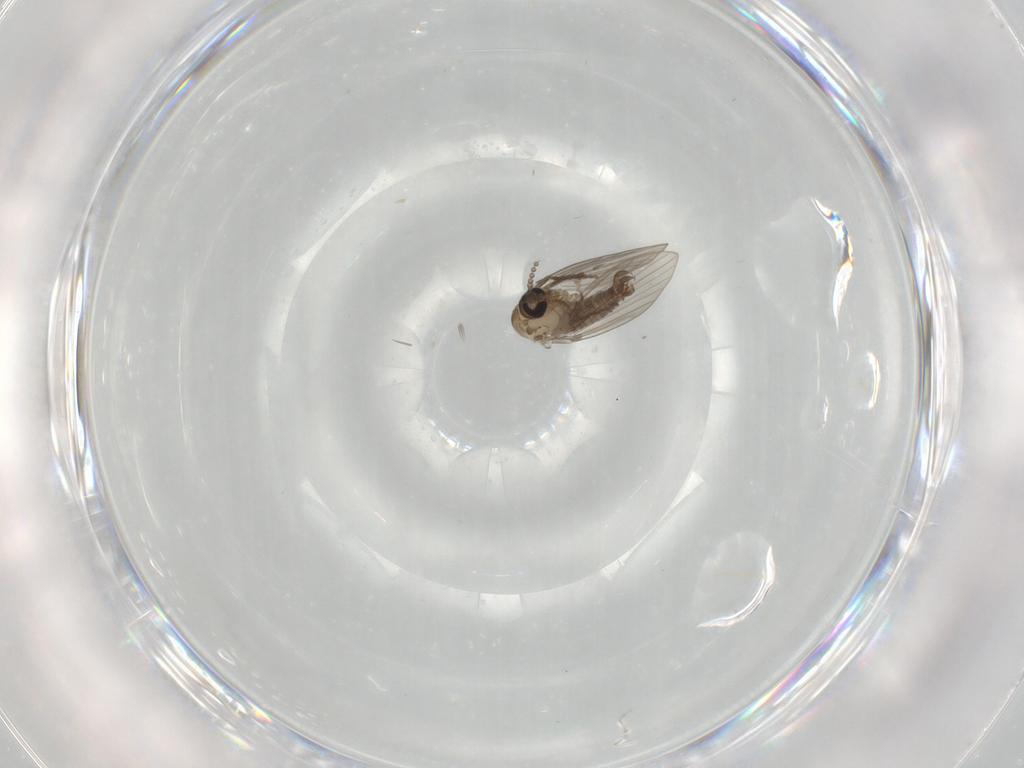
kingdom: Animalia
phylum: Arthropoda
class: Insecta
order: Diptera
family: Psychodidae
